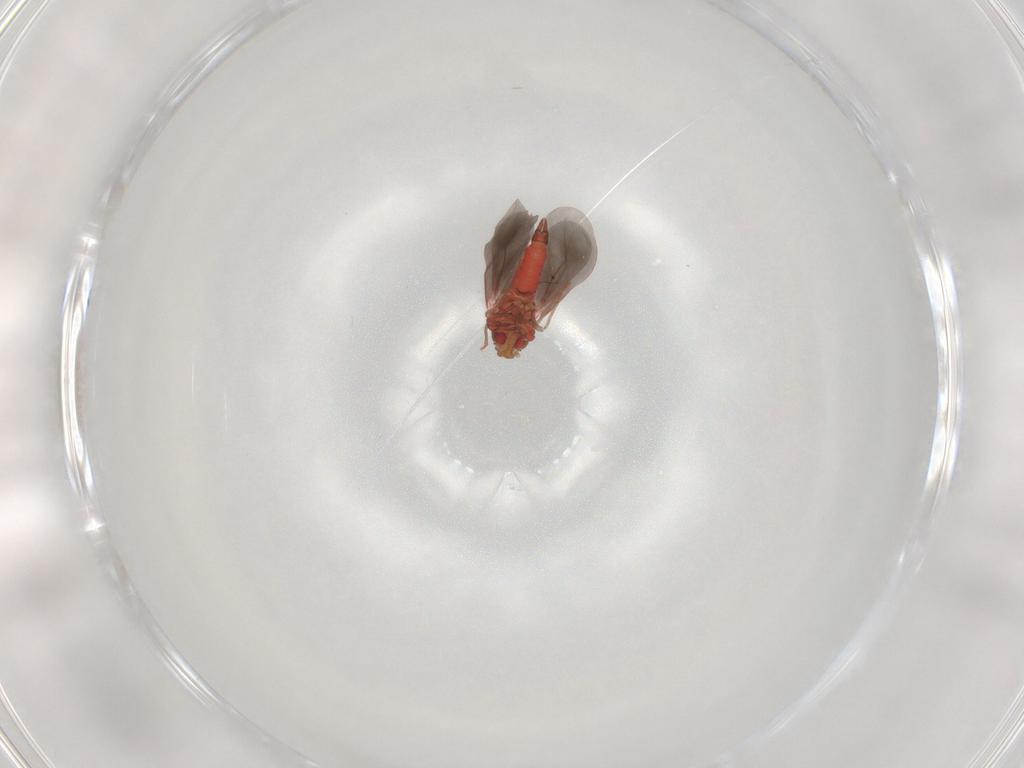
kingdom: Animalia
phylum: Arthropoda
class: Insecta
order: Hemiptera
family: Aleyrodidae
